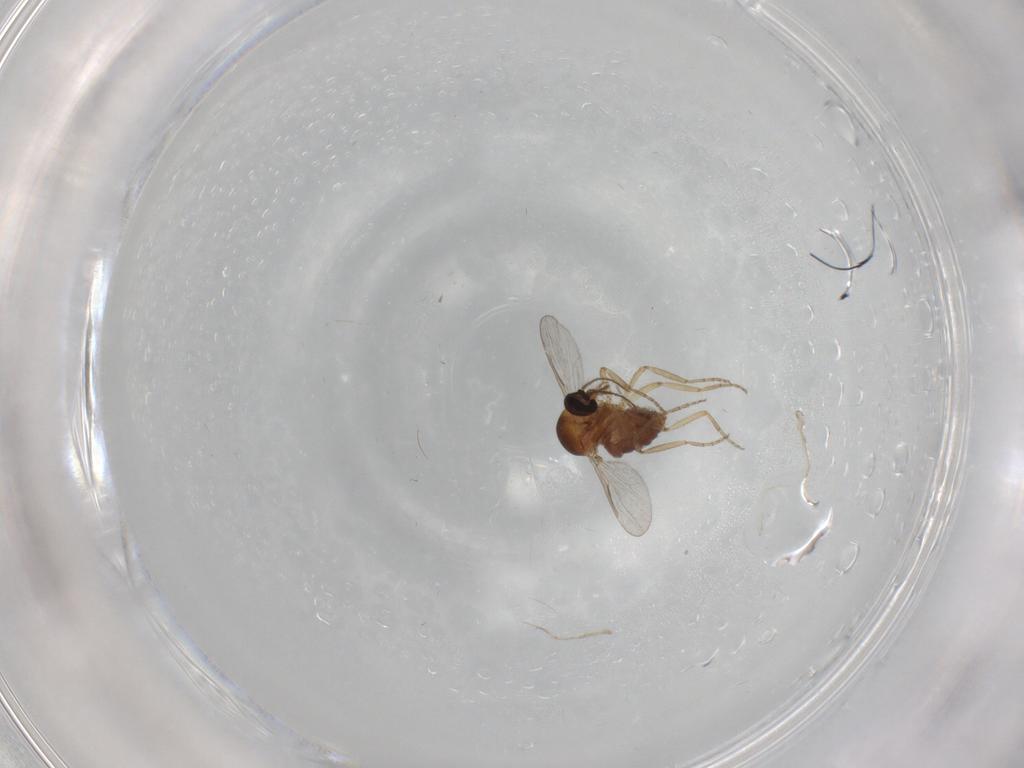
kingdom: Animalia
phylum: Arthropoda
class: Insecta
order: Diptera
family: Ceratopogonidae
